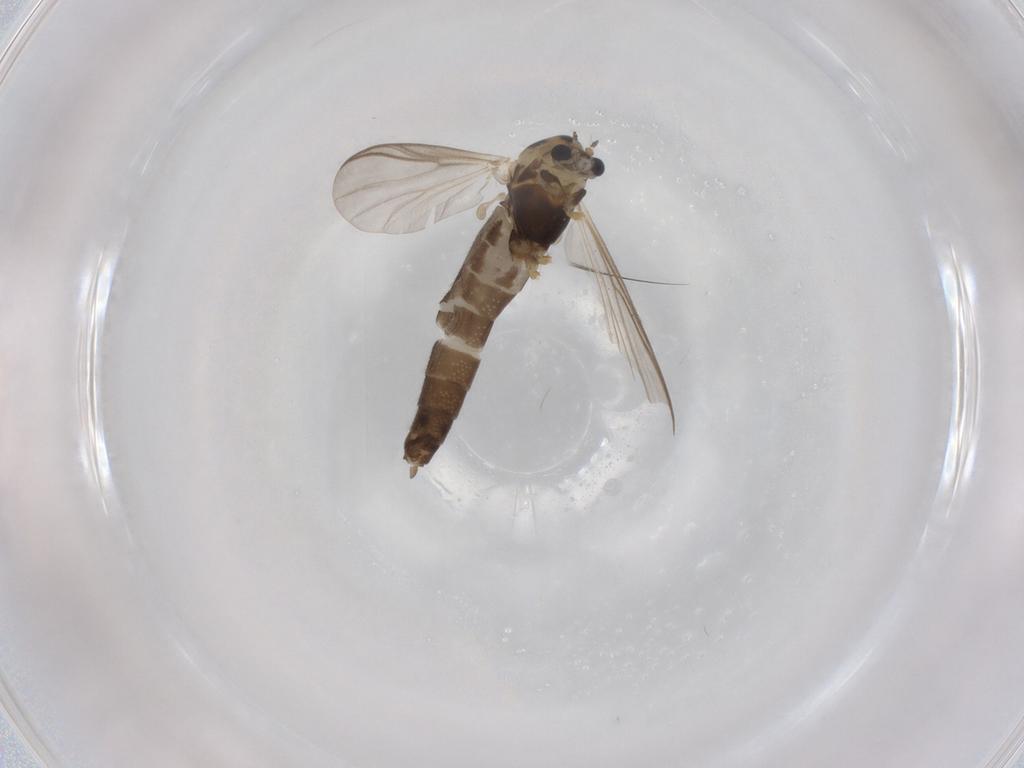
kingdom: Animalia
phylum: Arthropoda
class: Insecta
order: Diptera
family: Chironomidae
